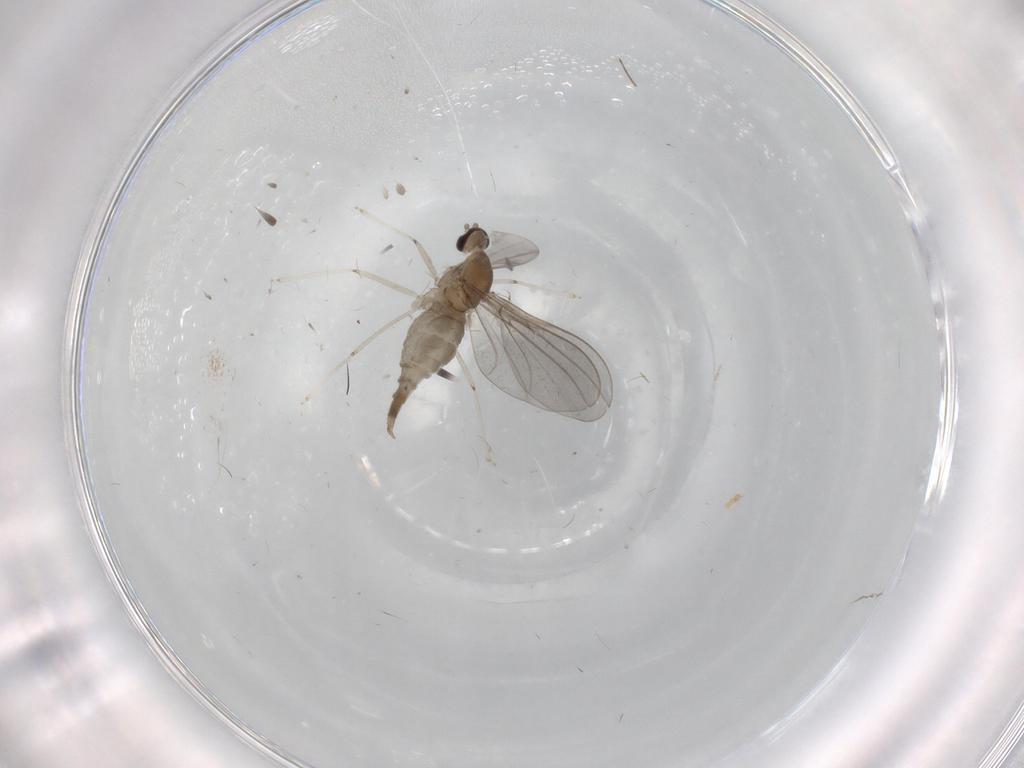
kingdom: Animalia
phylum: Arthropoda
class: Insecta
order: Diptera
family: Cecidomyiidae
